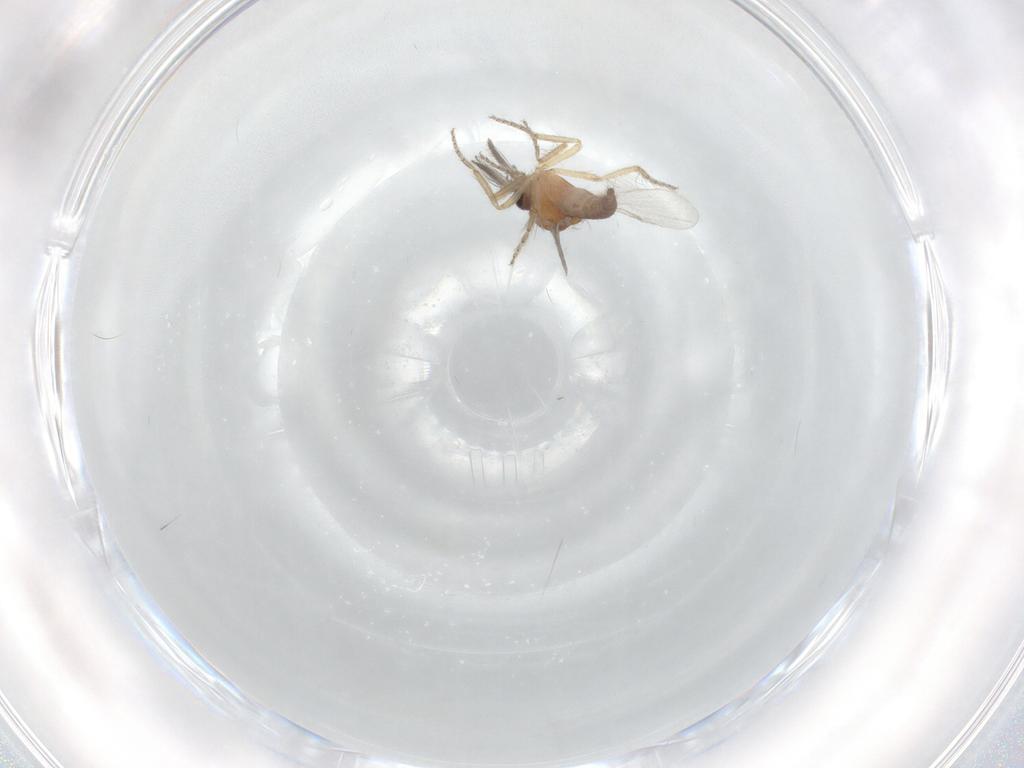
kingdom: Animalia
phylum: Arthropoda
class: Insecta
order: Diptera
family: Ceratopogonidae
